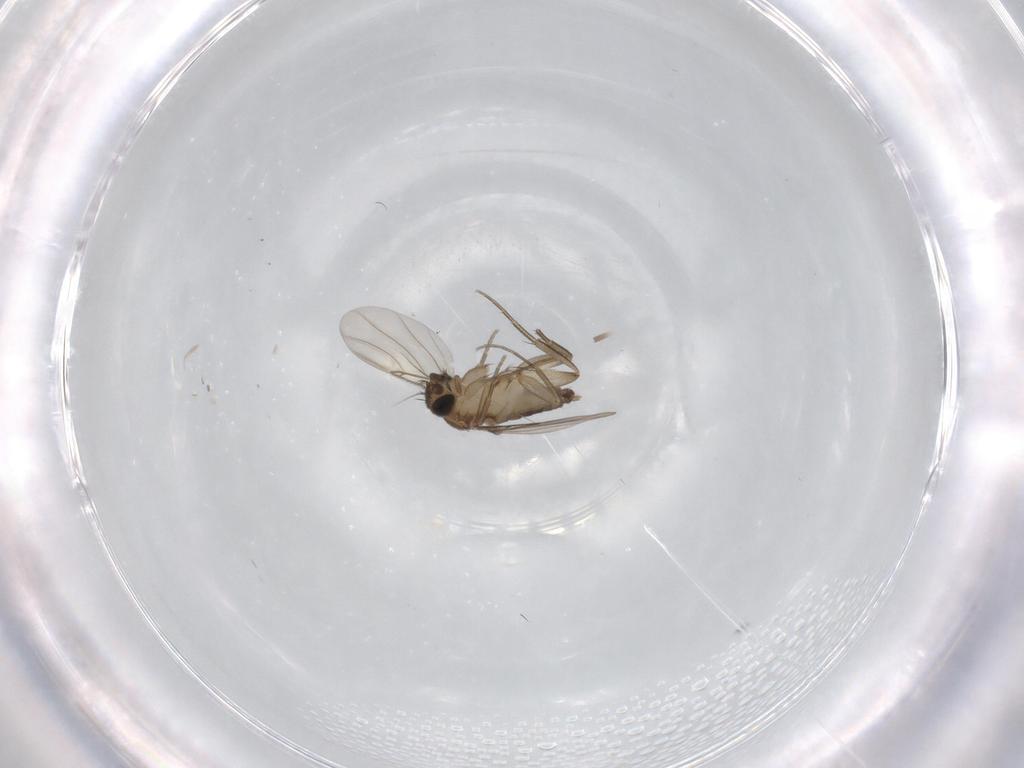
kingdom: Animalia
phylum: Arthropoda
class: Insecta
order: Diptera
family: Phoridae
